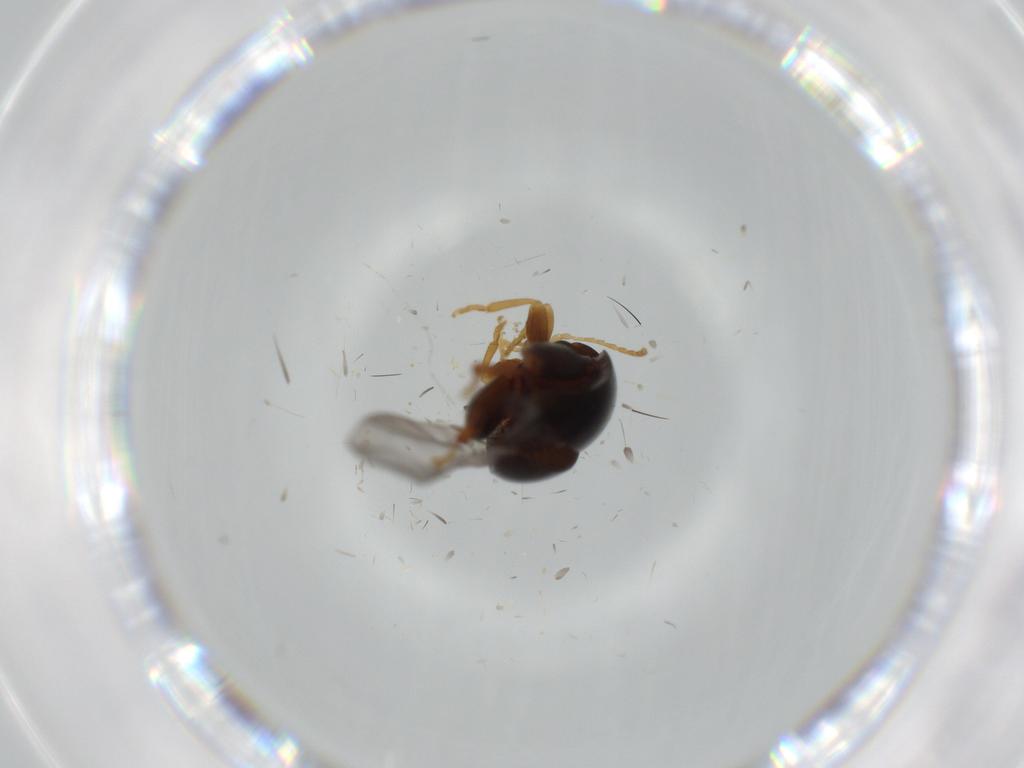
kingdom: Animalia
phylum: Arthropoda
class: Insecta
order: Coleoptera
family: Chrysomelidae
